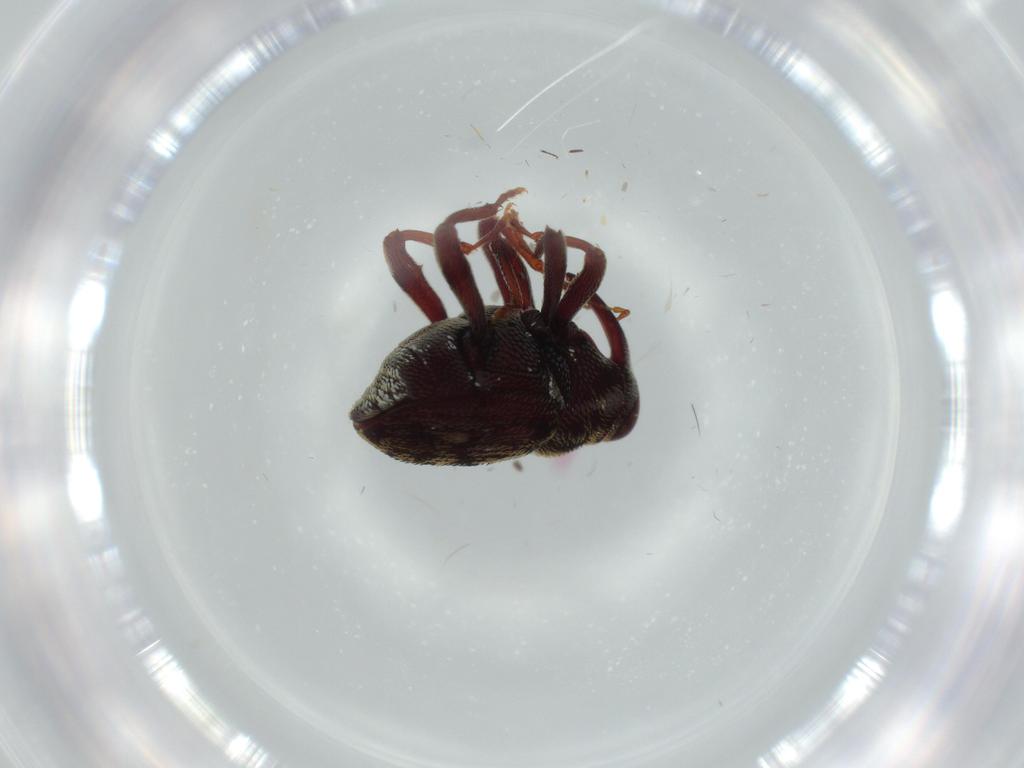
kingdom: Animalia
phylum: Arthropoda
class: Insecta
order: Coleoptera
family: Curculionidae
